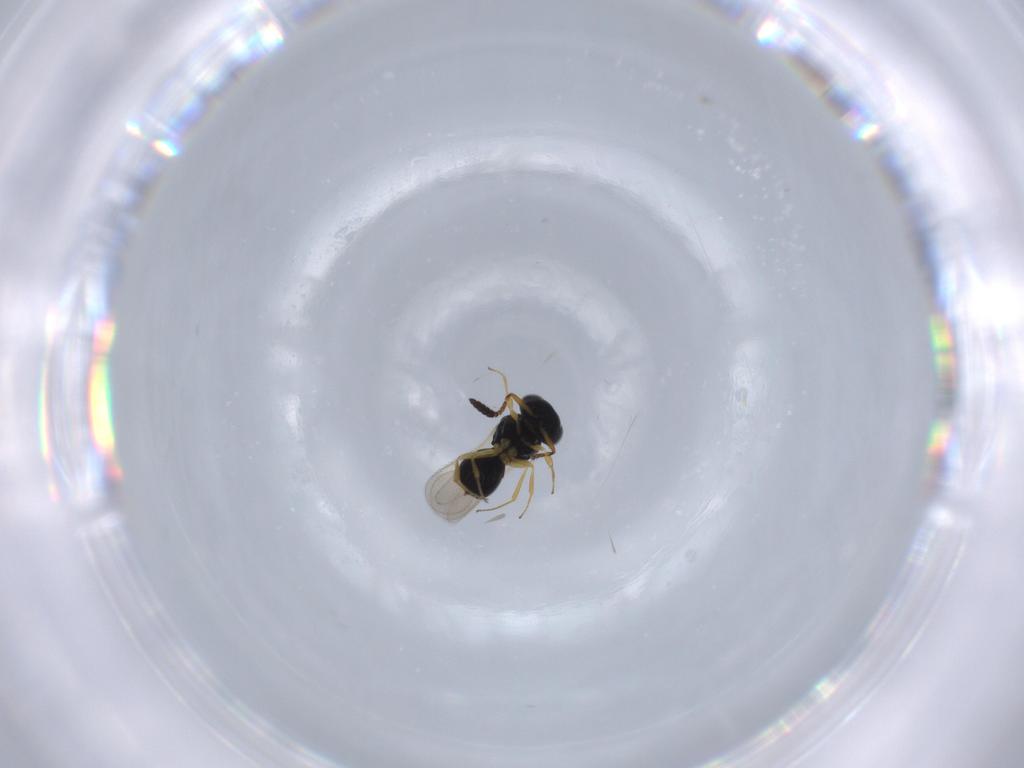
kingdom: Animalia
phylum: Arthropoda
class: Insecta
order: Hymenoptera
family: Scelionidae
